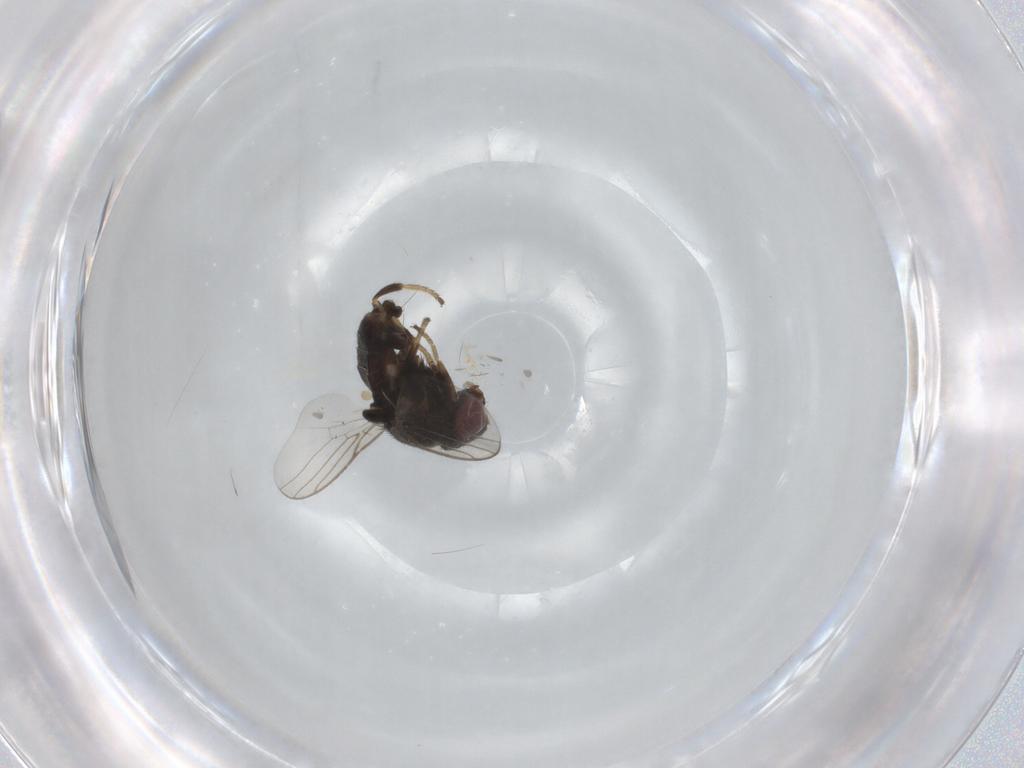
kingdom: Animalia
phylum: Arthropoda
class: Insecta
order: Diptera
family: Chloropidae
